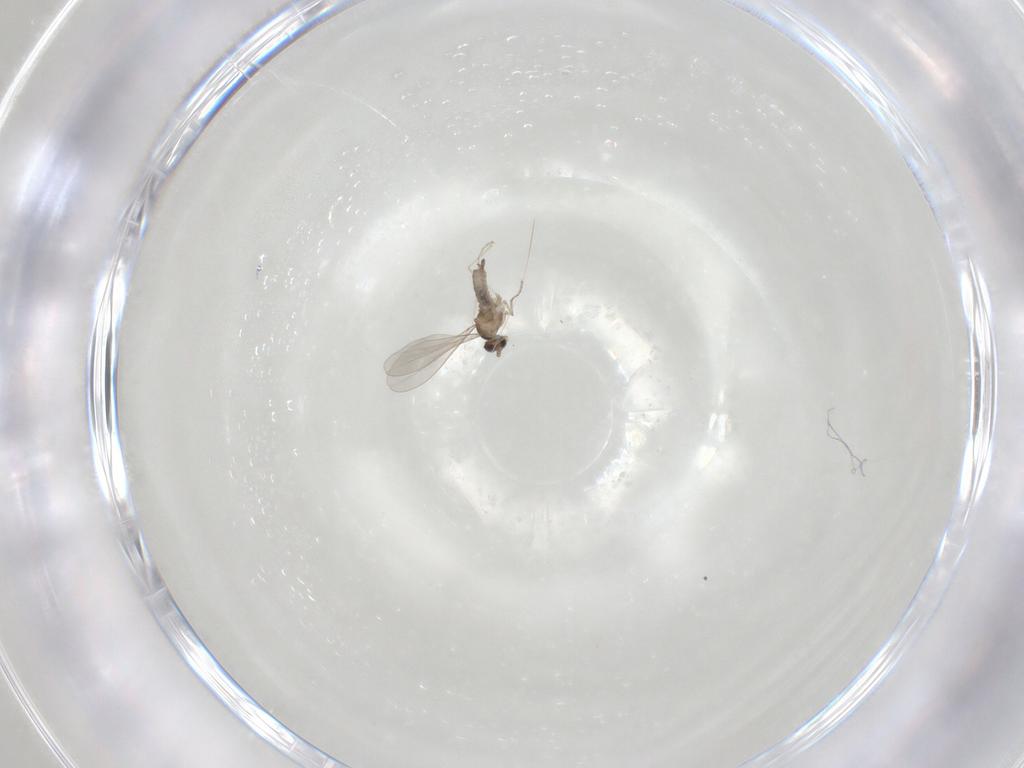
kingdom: Animalia
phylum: Arthropoda
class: Insecta
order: Diptera
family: Cecidomyiidae
